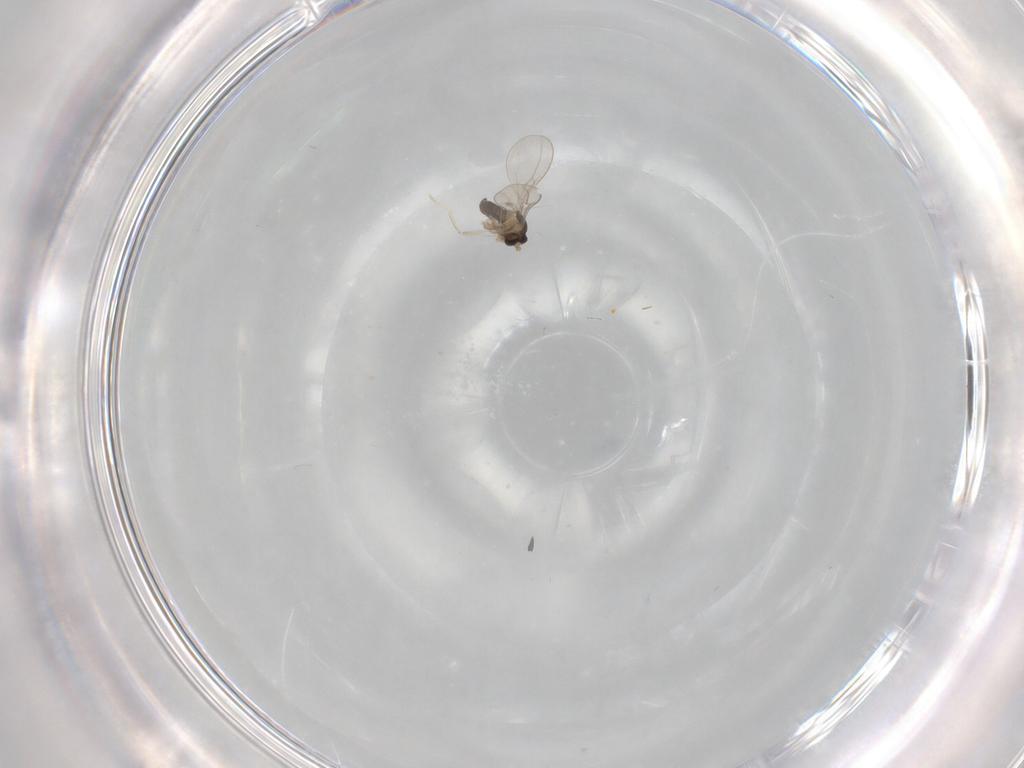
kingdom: Animalia
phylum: Arthropoda
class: Insecta
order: Diptera
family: Cecidomyiidae
